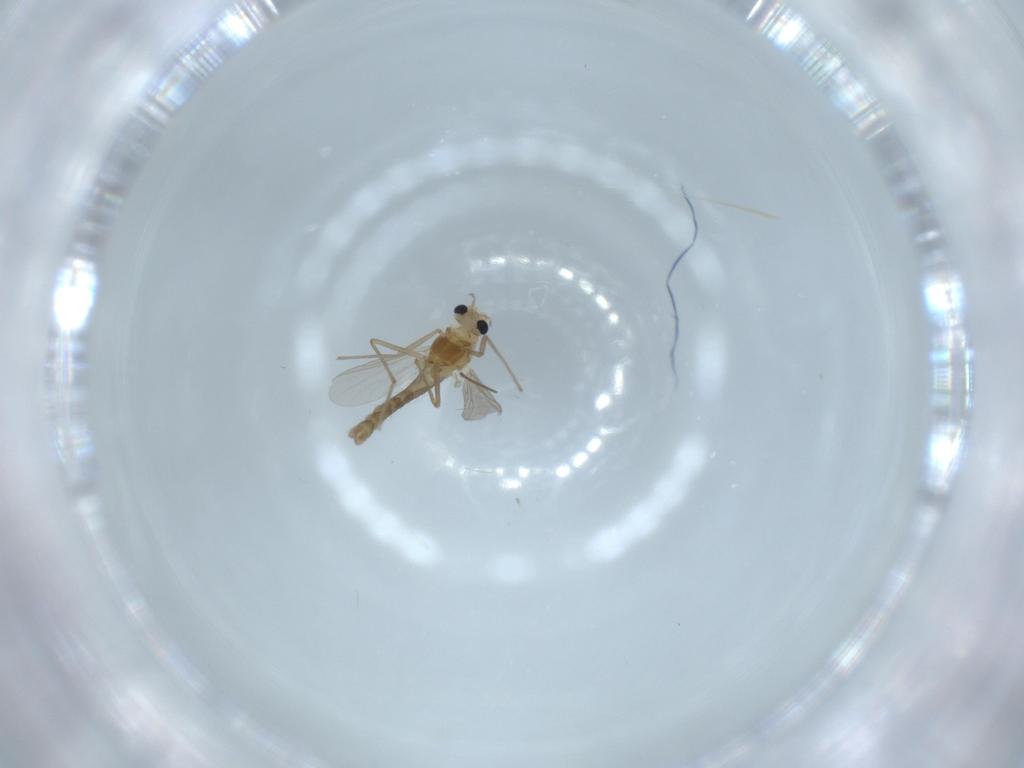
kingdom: Animalia
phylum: Arthropoda
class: Insecta
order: Diptera
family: Chironomidae
